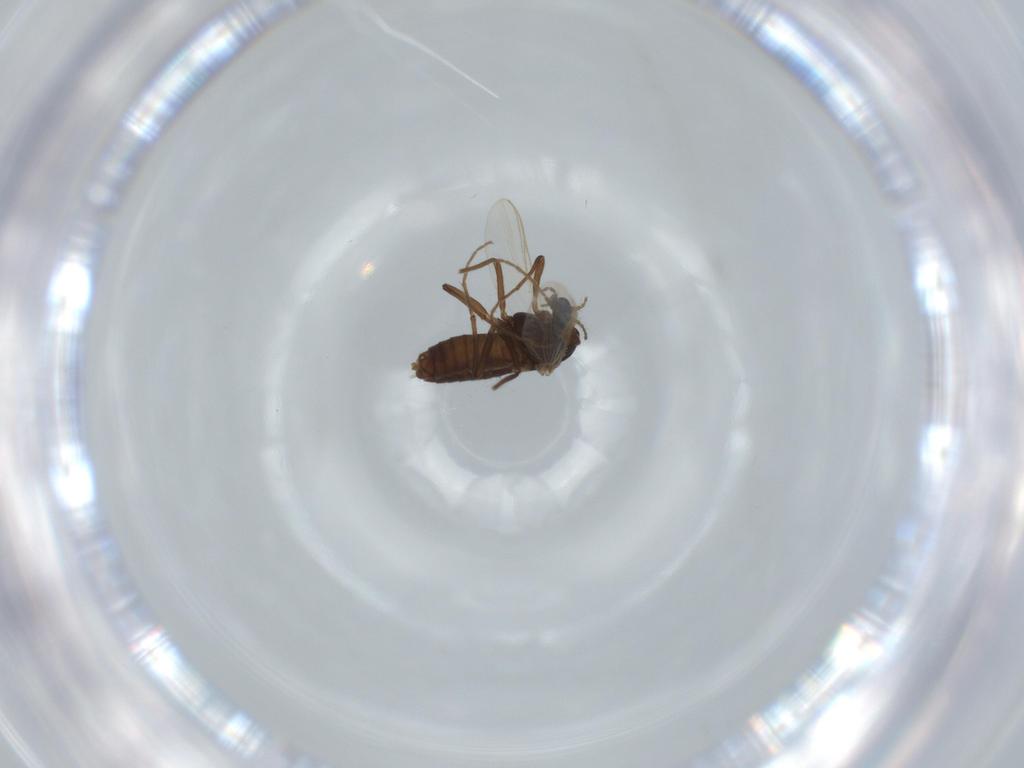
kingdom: Animalia
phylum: Arthropoda
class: Insecta
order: Diptera
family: Chironomidae
